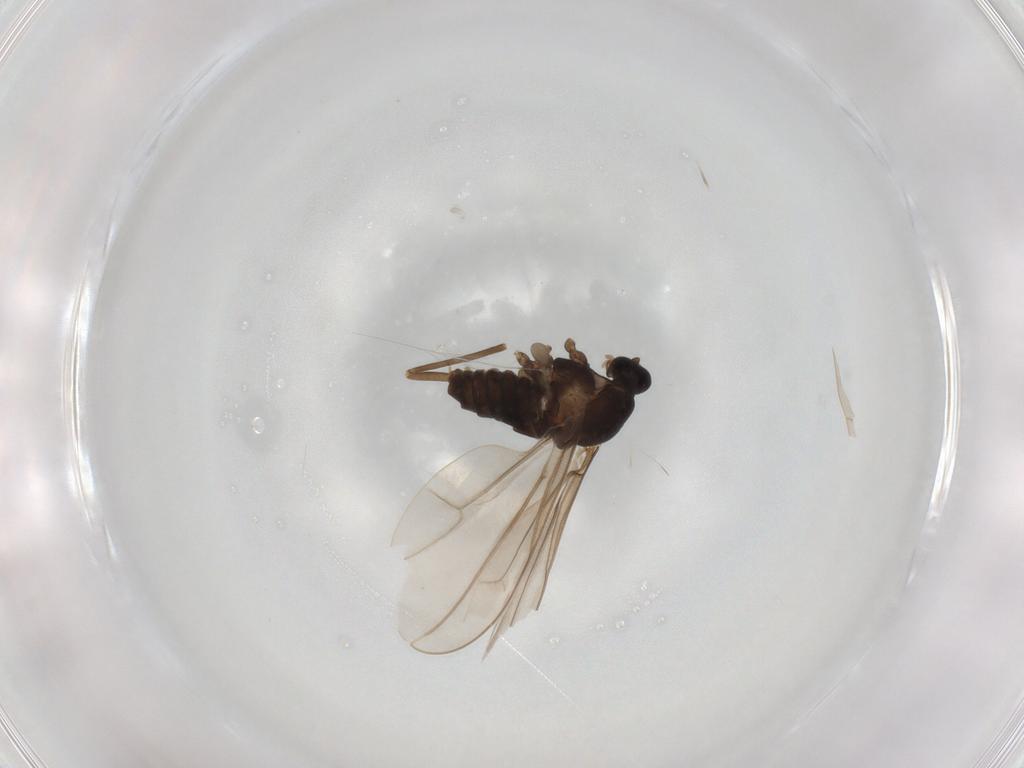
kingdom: Animalia
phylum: Arthropoda
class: Insecta
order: Diptera
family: Cecidomyiidae
